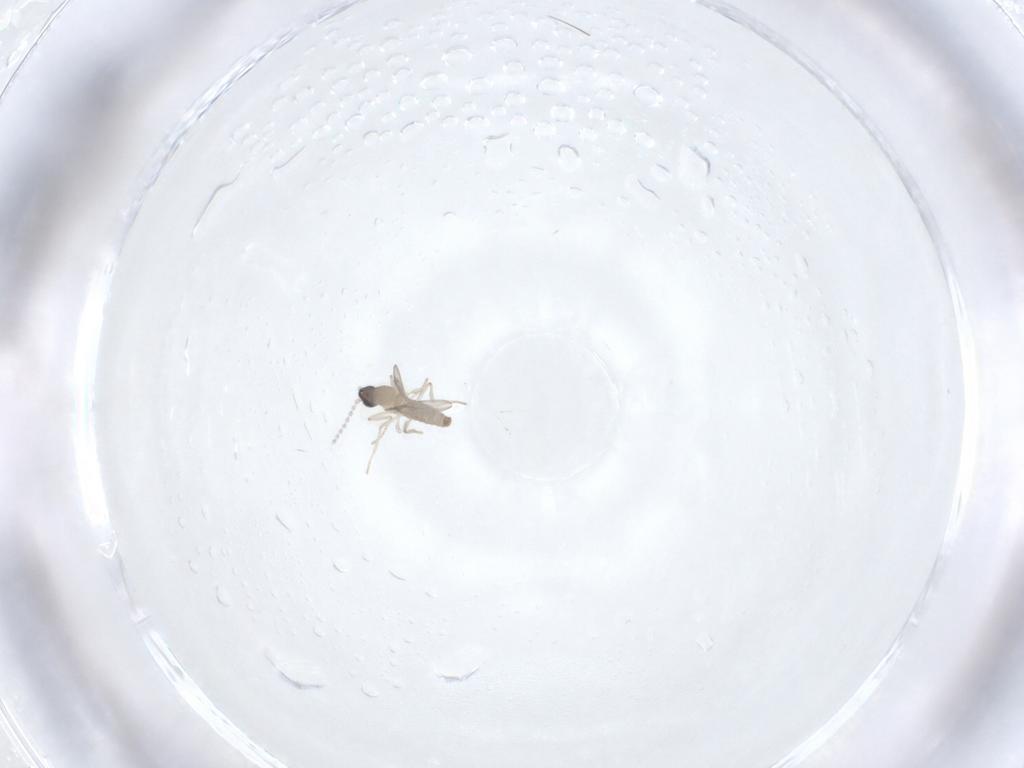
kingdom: Animalia
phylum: Arthropoda
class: Insecta
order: Diptera
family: Cecidomyiidae
